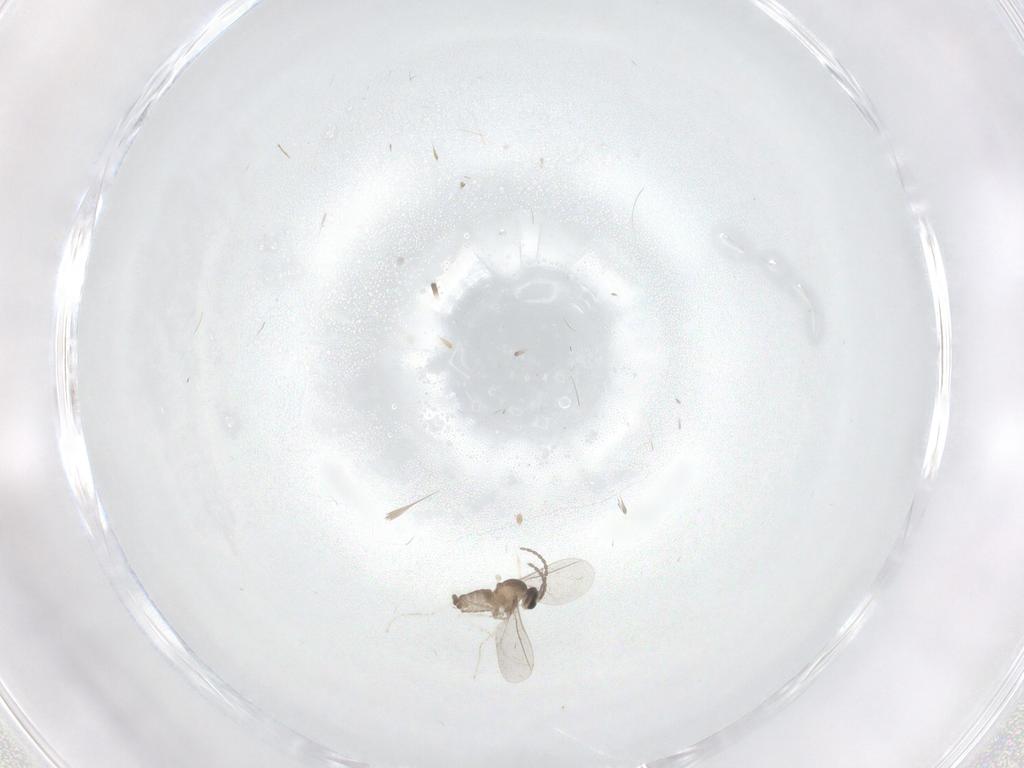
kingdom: Animalia
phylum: Arthropoda
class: Insecta
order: Diptera
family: Cecidomyiidae
